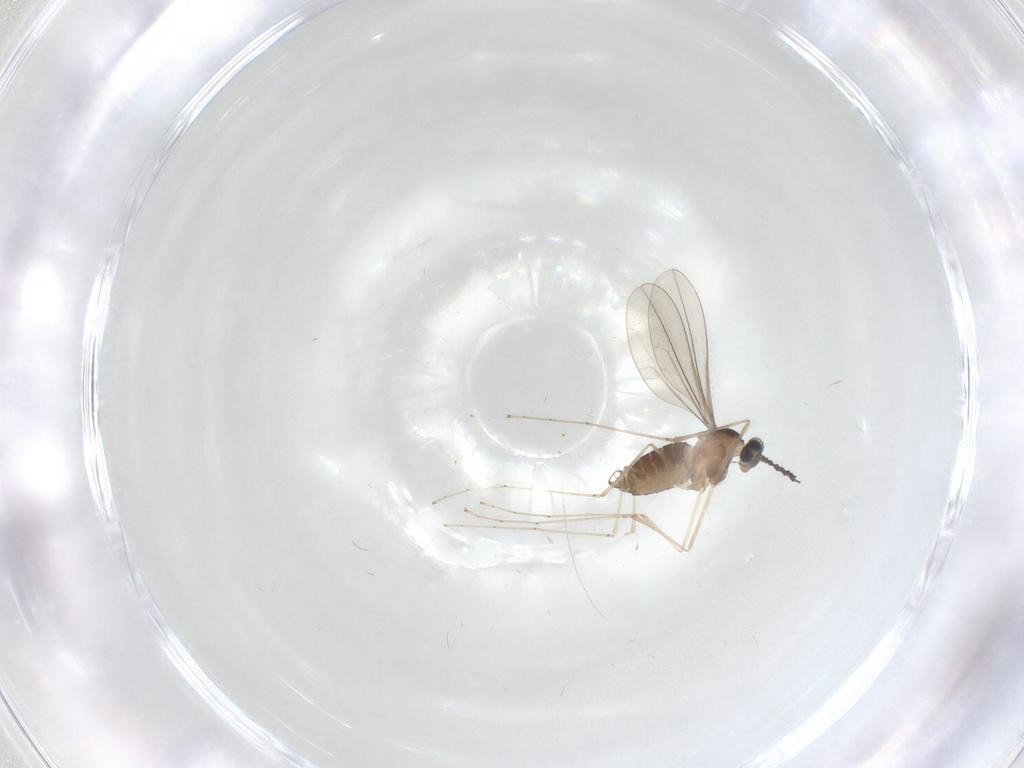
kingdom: Animalia
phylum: Arthropoda
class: Insecta
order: Diptera
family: Cecidomyiidae
